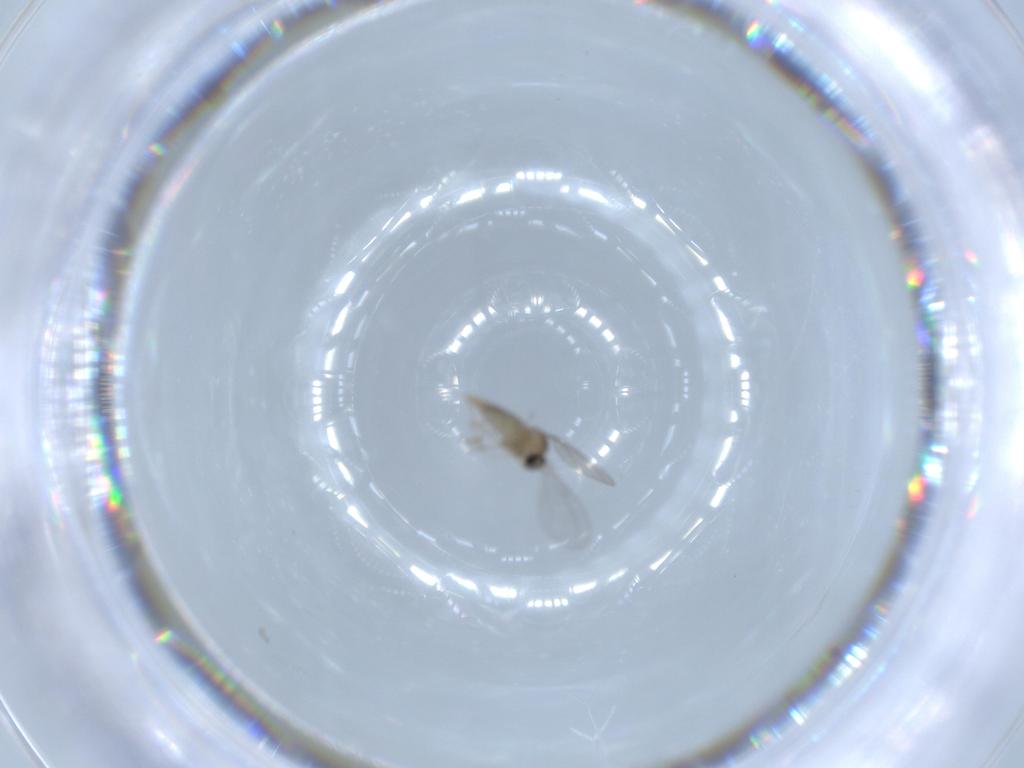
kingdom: Animalia
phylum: Arthropoda
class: Insecta
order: Diptera
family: Cecidomyiidae
